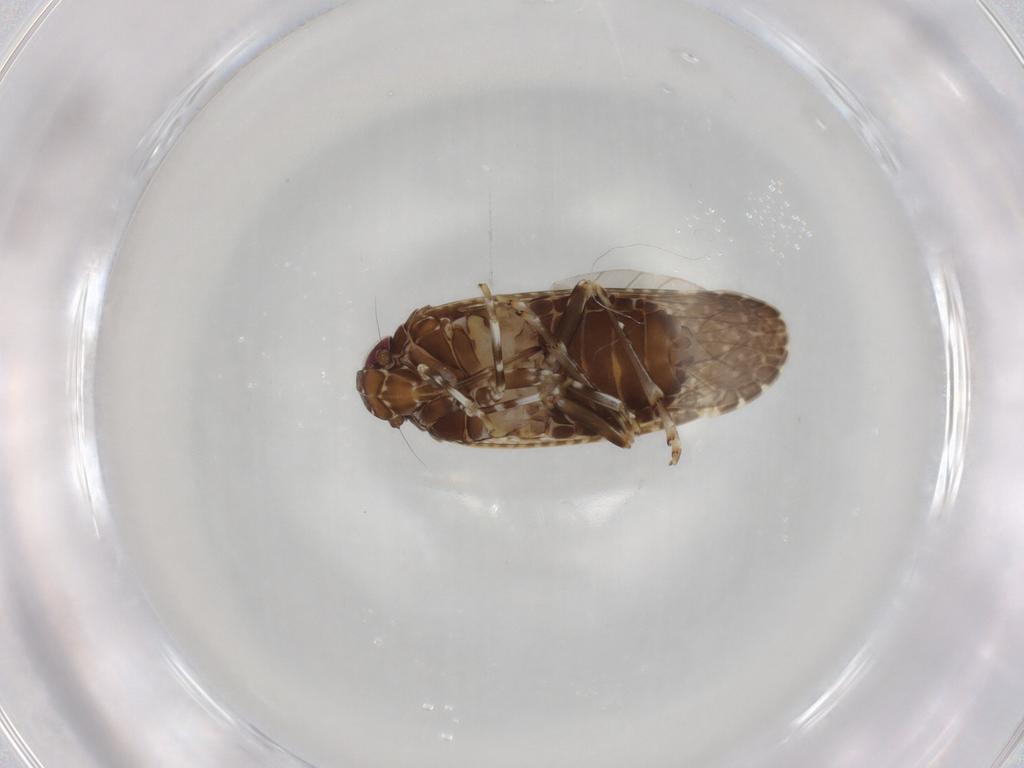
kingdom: Animalia
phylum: Arthropoda
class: Insecta
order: Hemiptera
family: Achilidae
